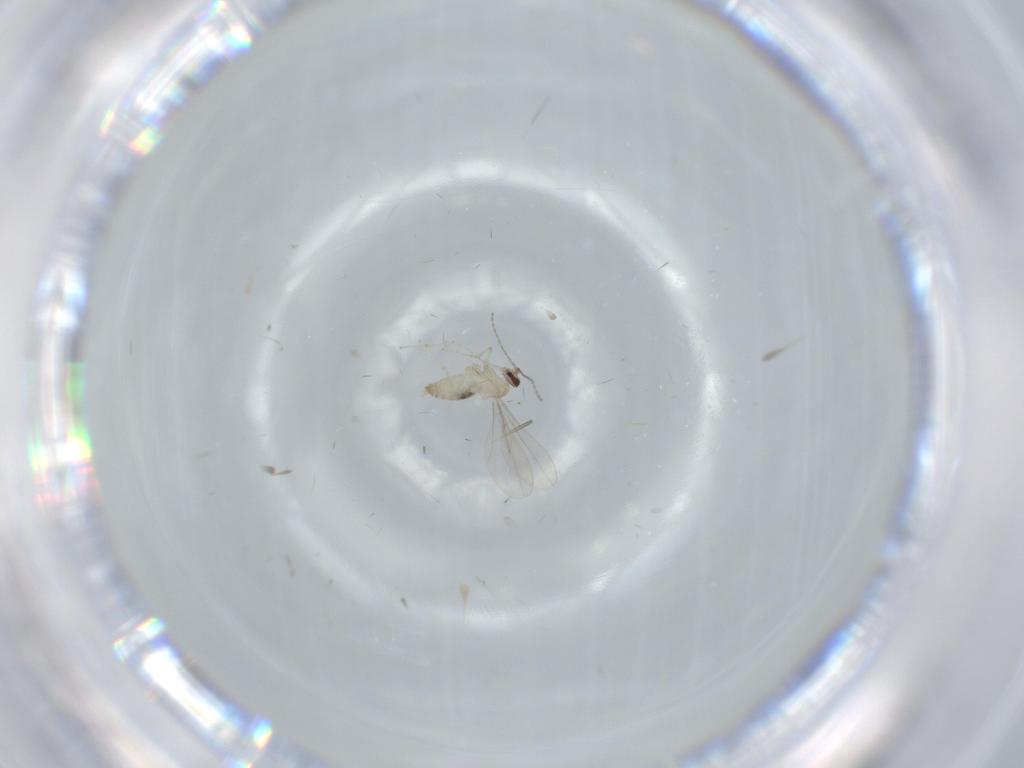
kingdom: Animalia
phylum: Arthropoda
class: Insecta
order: Diptera
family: Cecidomyiidae
